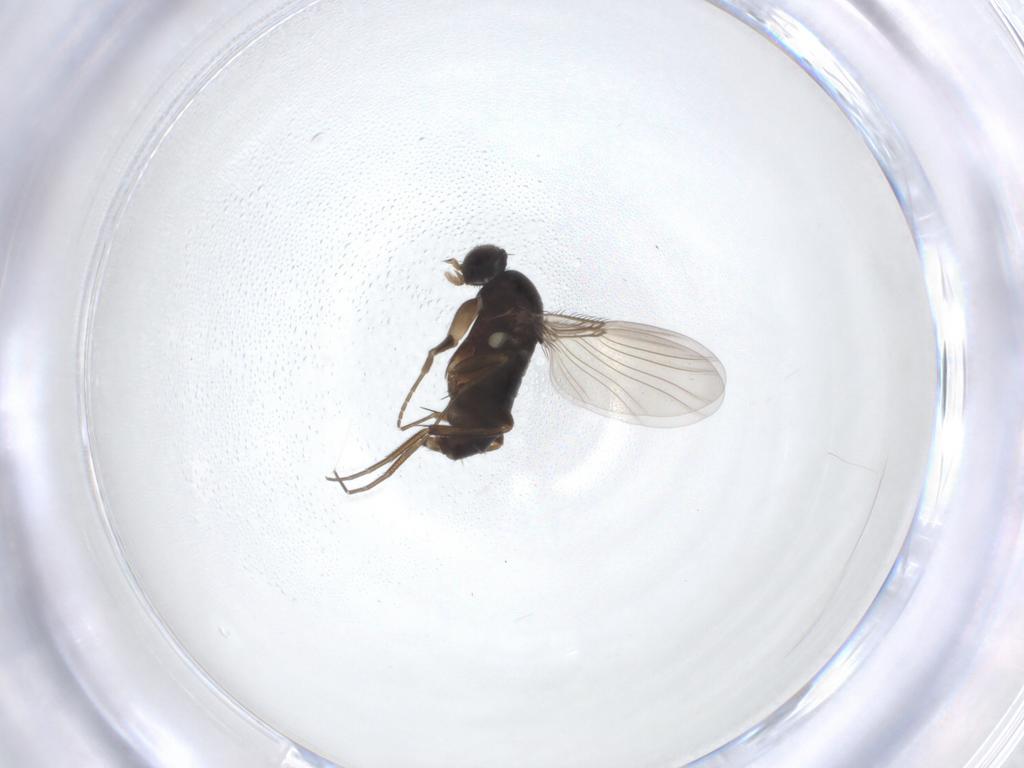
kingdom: Animalia
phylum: Arthropoda
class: Insecta
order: Diptera
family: Phoridae
